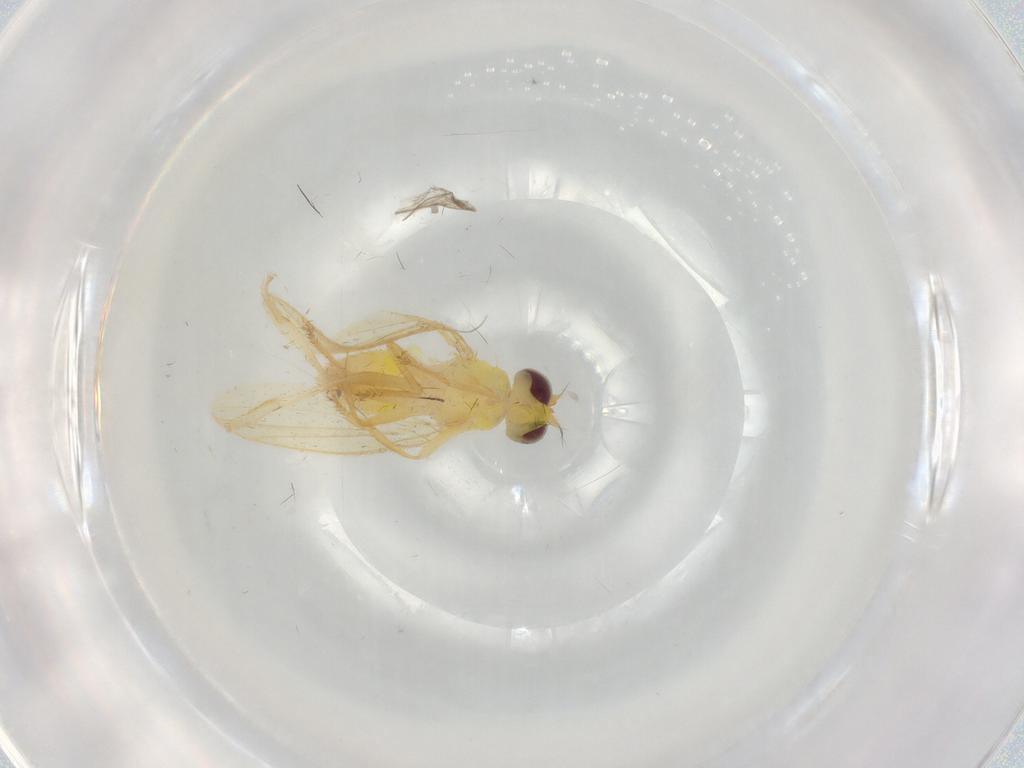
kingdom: Animalia
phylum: Arthropoda
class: Insecta
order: Diptera
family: Periscelididae
